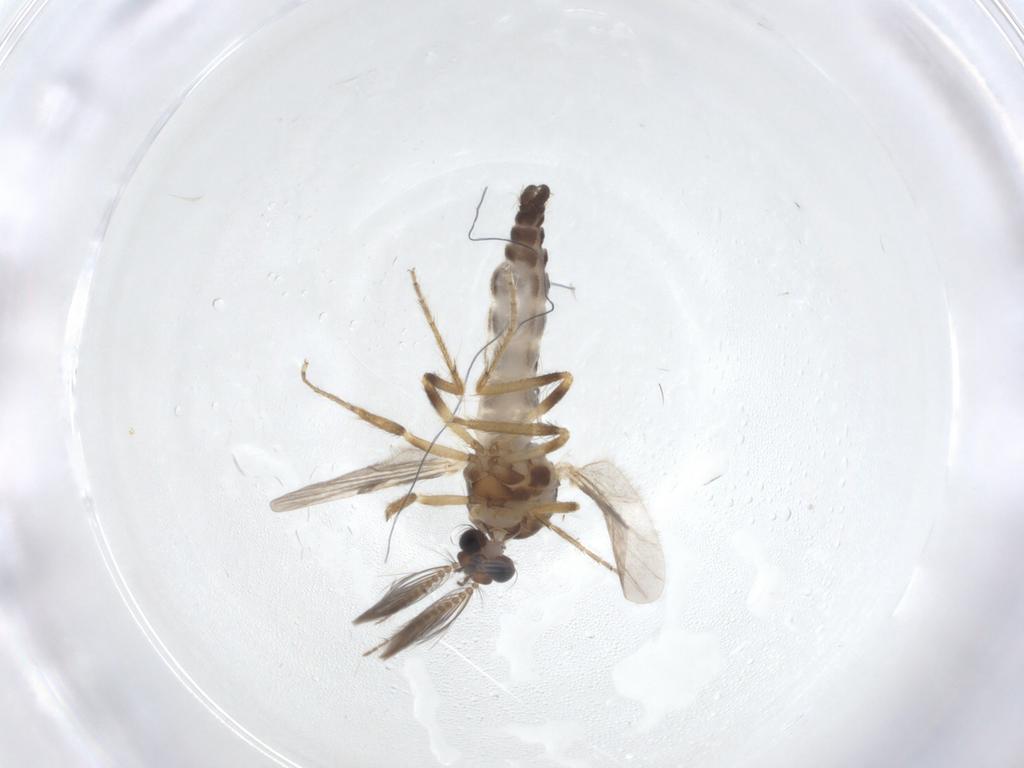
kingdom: Animalia
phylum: Arthropoda
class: Insecta
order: Diptera
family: Ceratopogonidae
